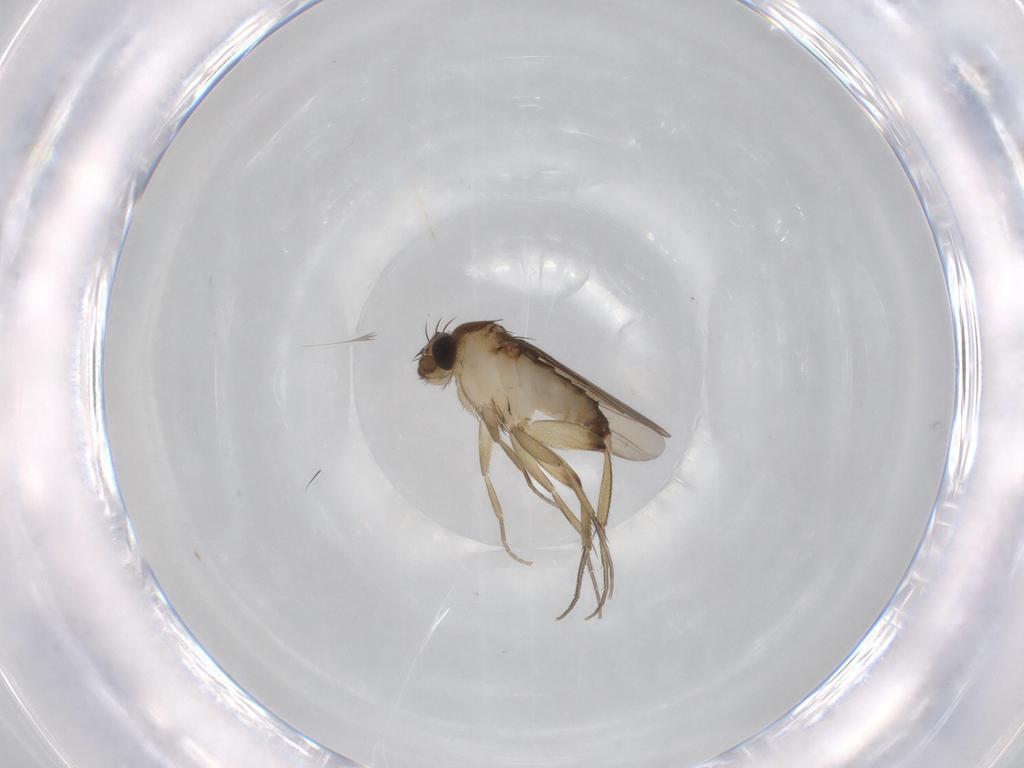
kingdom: Animalia
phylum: Arthropoda
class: Insecta
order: Diptera
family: Phoridae
